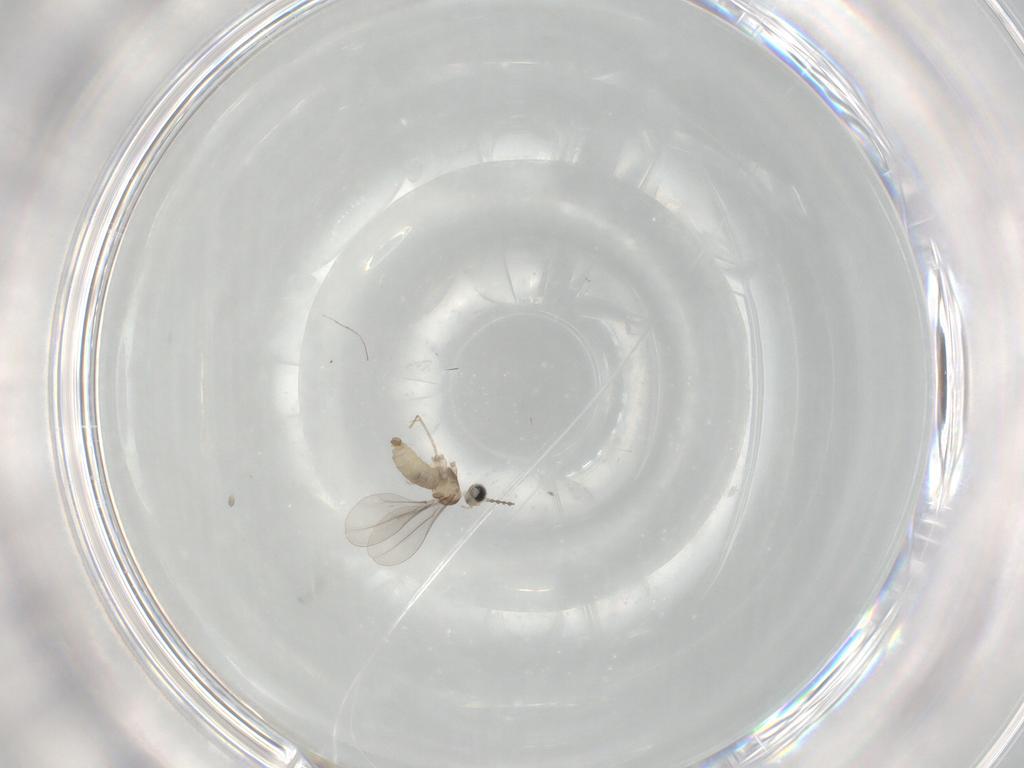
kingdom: Animalia
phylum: Arthropoda
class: Insecta
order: Diptera
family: Cecidomyiidae
